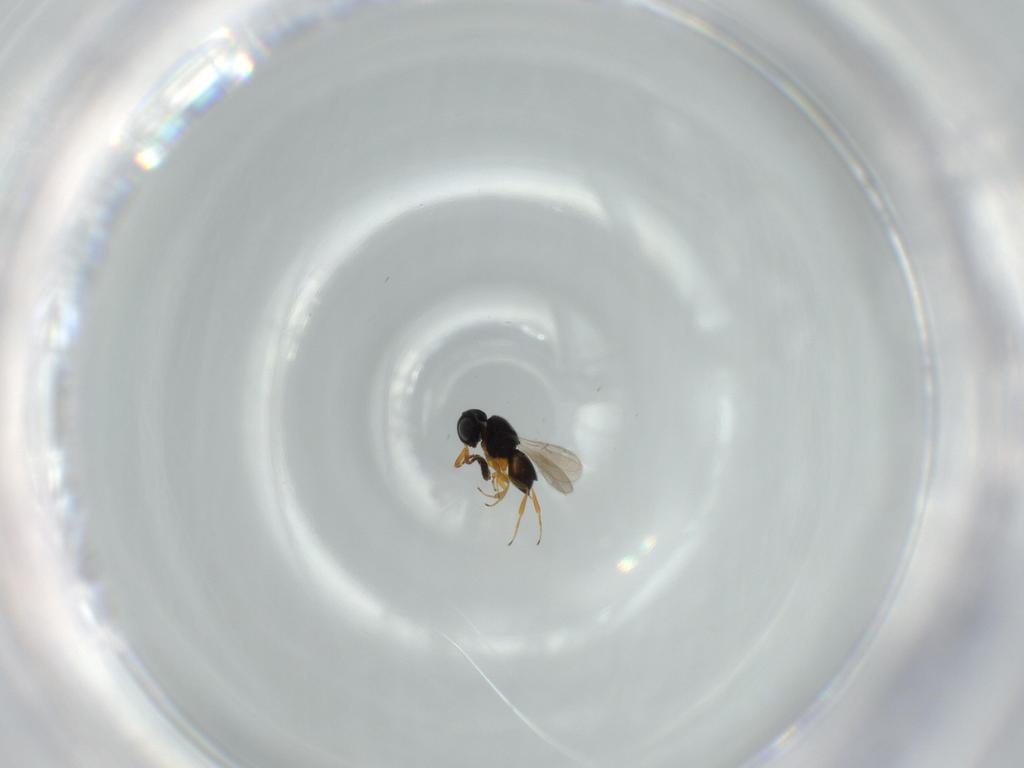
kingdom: Animalia
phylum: Arthropoda
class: Insecta
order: Hymenoptera
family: Scelionidae
